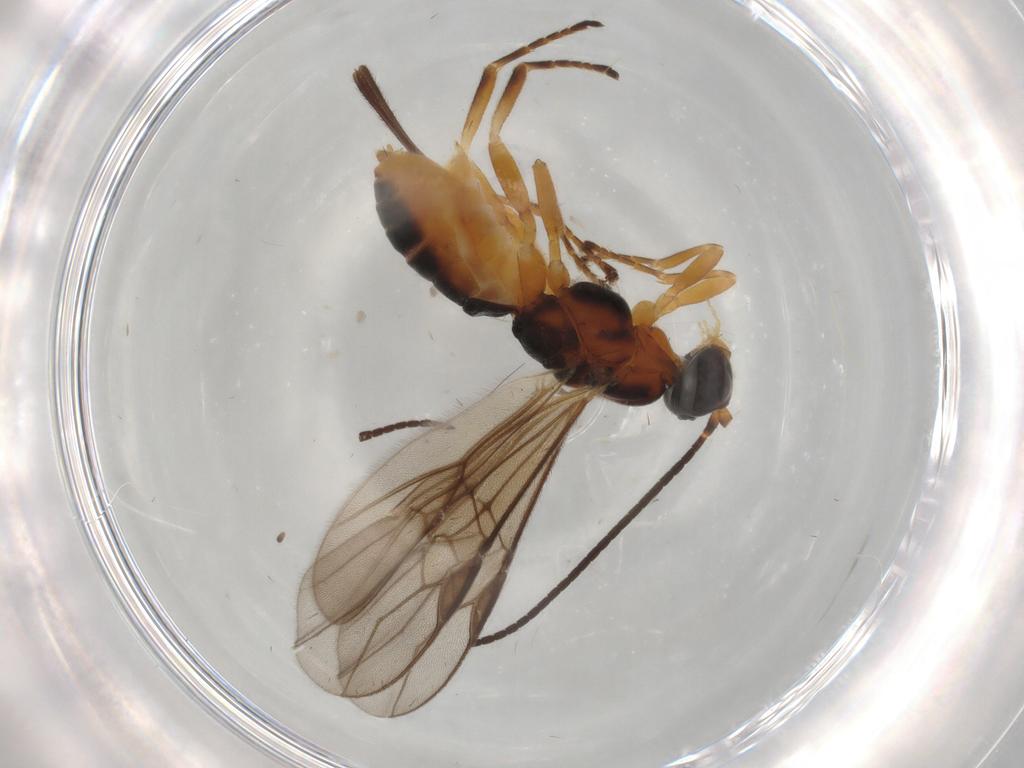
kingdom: Animalia
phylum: Arthropoda
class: Insecta
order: Hymenoptera
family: Braconidae
